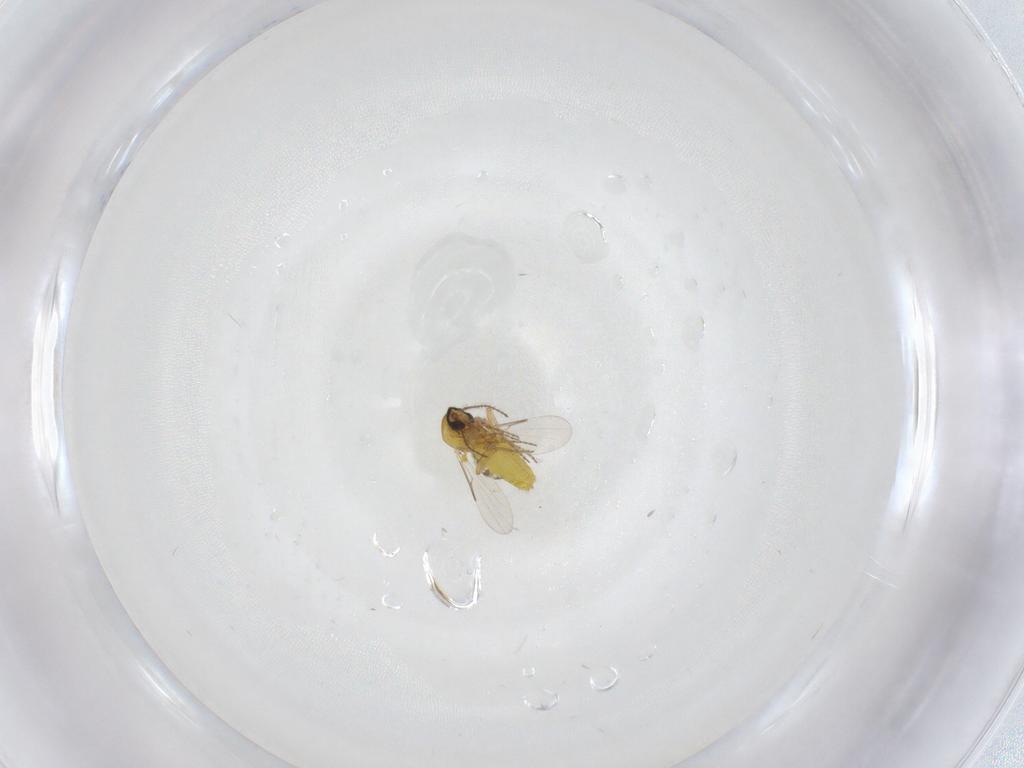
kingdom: Animalia
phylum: Arthropoda
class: Insecta
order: Diptera
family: Ceratopogonidae
